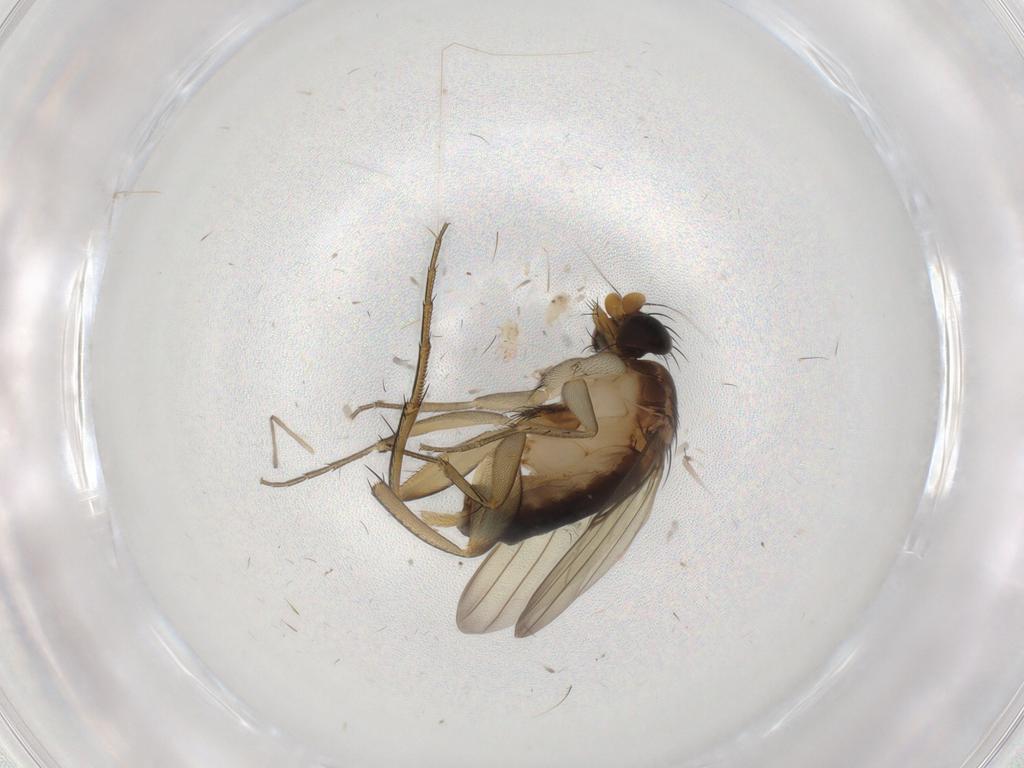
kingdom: Animalia
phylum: Arthropoda
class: Insecta
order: Diptera
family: Phoridae
